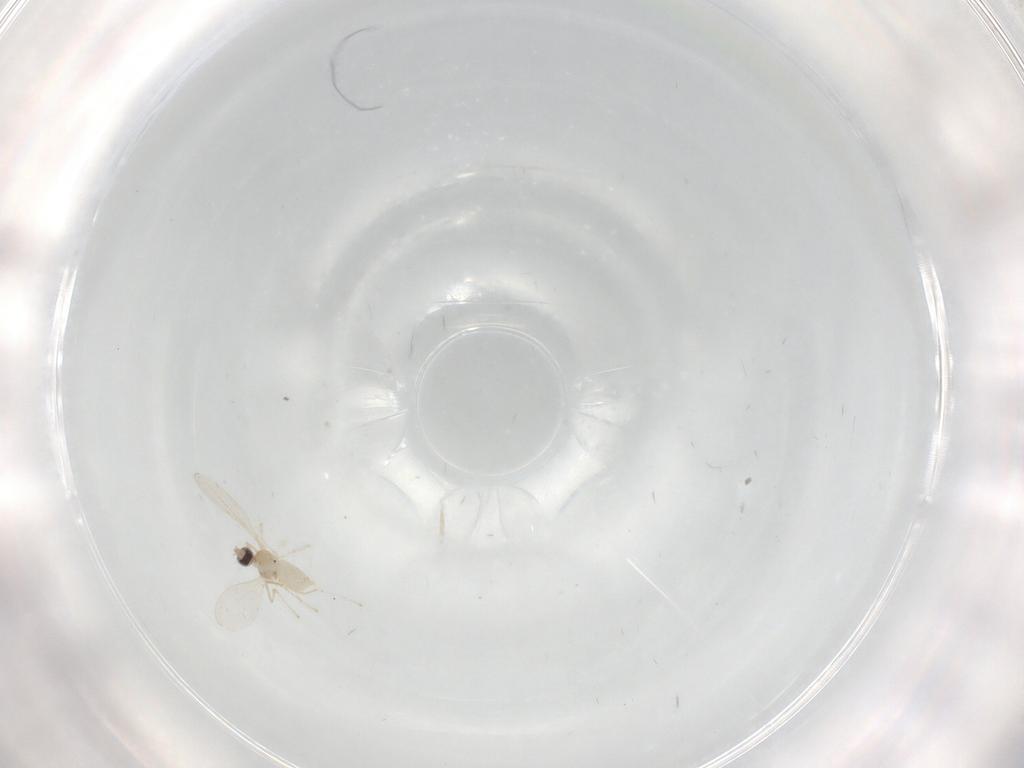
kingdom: Animalia
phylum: Arthropoda
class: Insecta
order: Diptera
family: Cecidomyiidae
